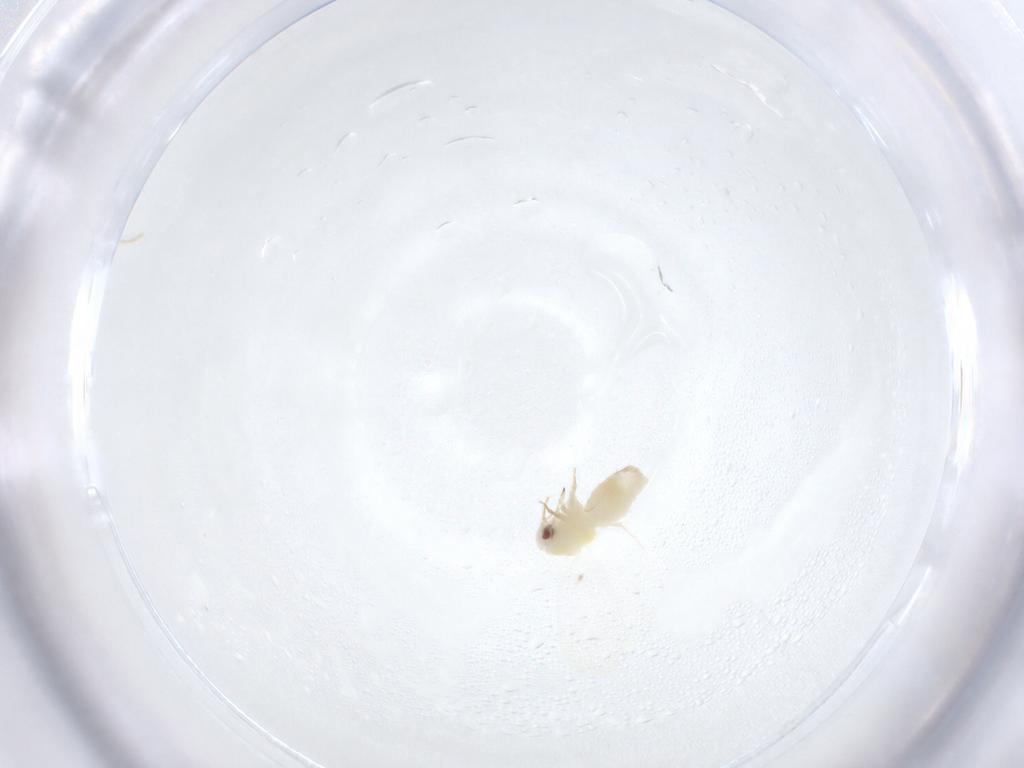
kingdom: Animalia
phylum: Arthropoda
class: Insecta
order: Hemiptera
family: Aleyrodidae
